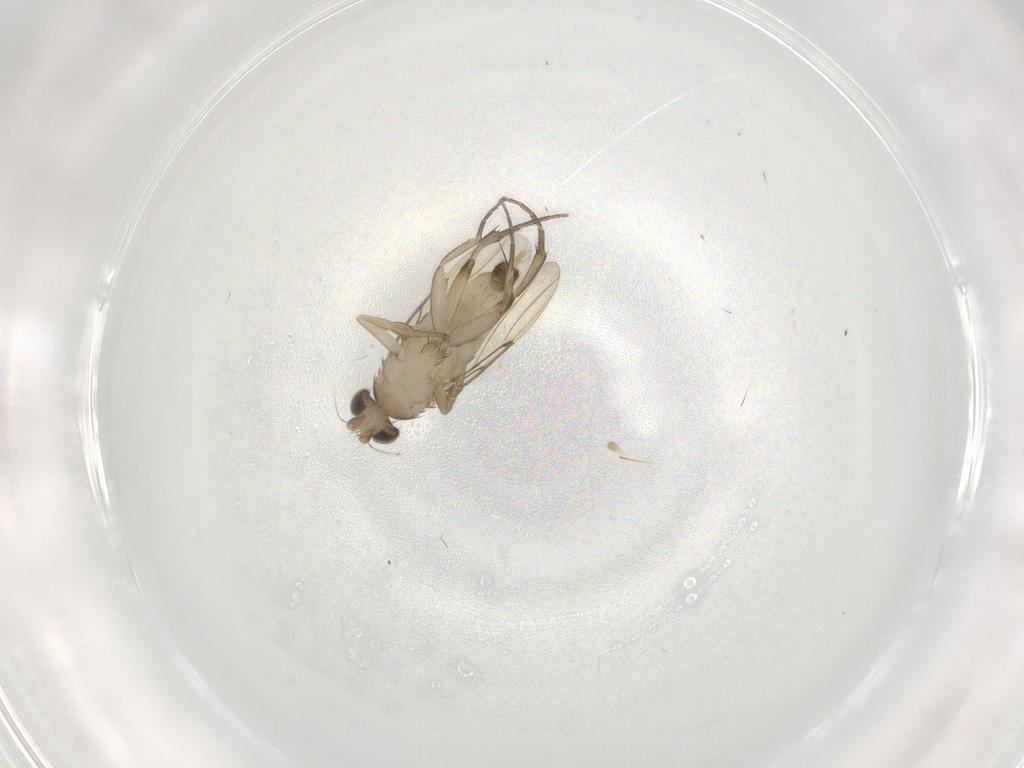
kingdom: Animalia
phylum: Arthropoda
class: Insecta
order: Diptera
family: Phoridae
